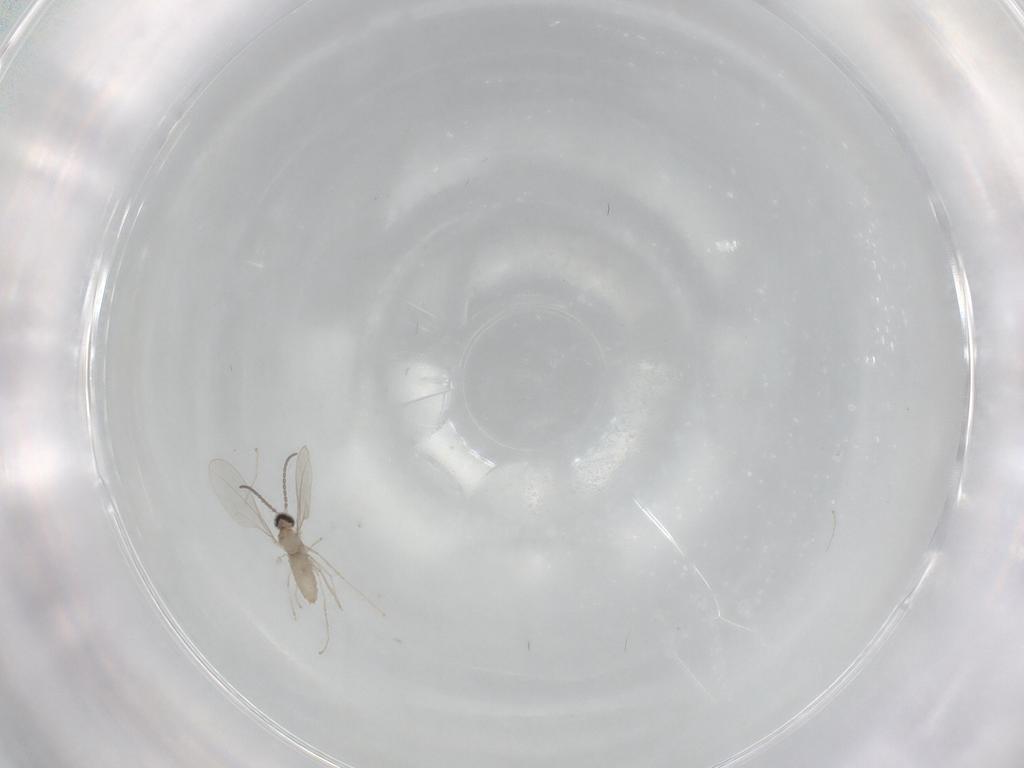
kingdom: Animalia
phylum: Arthropoda
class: Insecta
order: Diptera
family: Cecidomyiidae
